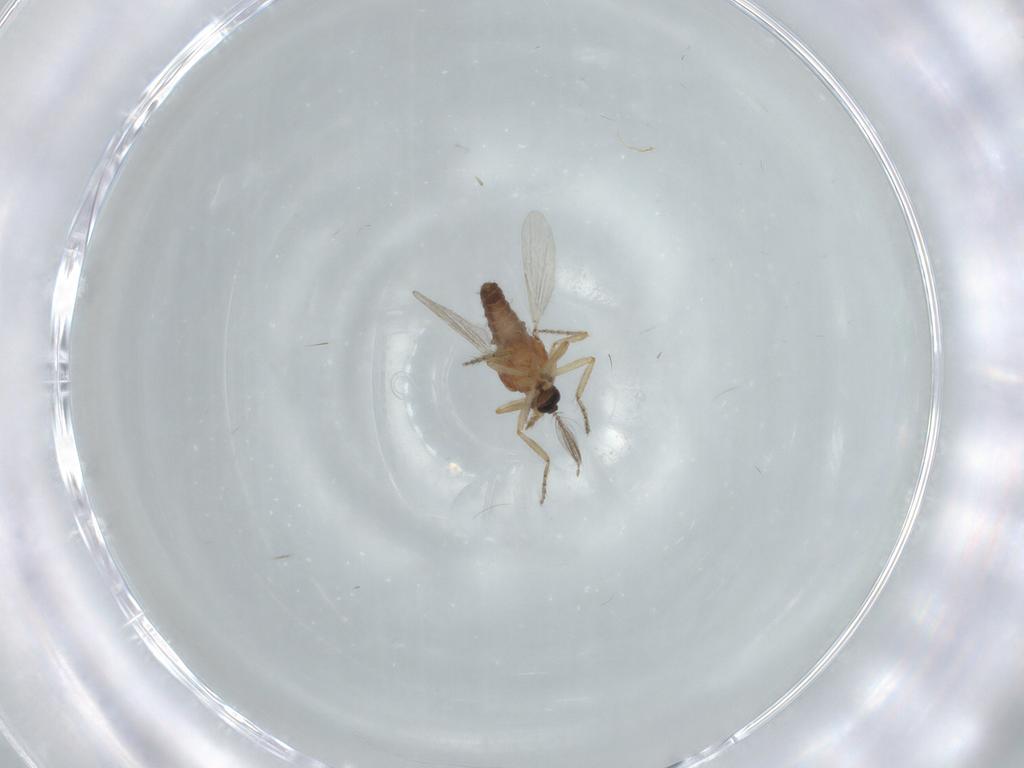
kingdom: Animalia
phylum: Arthropoda
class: Insecta
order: Diptera
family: Ceratopogonidae
